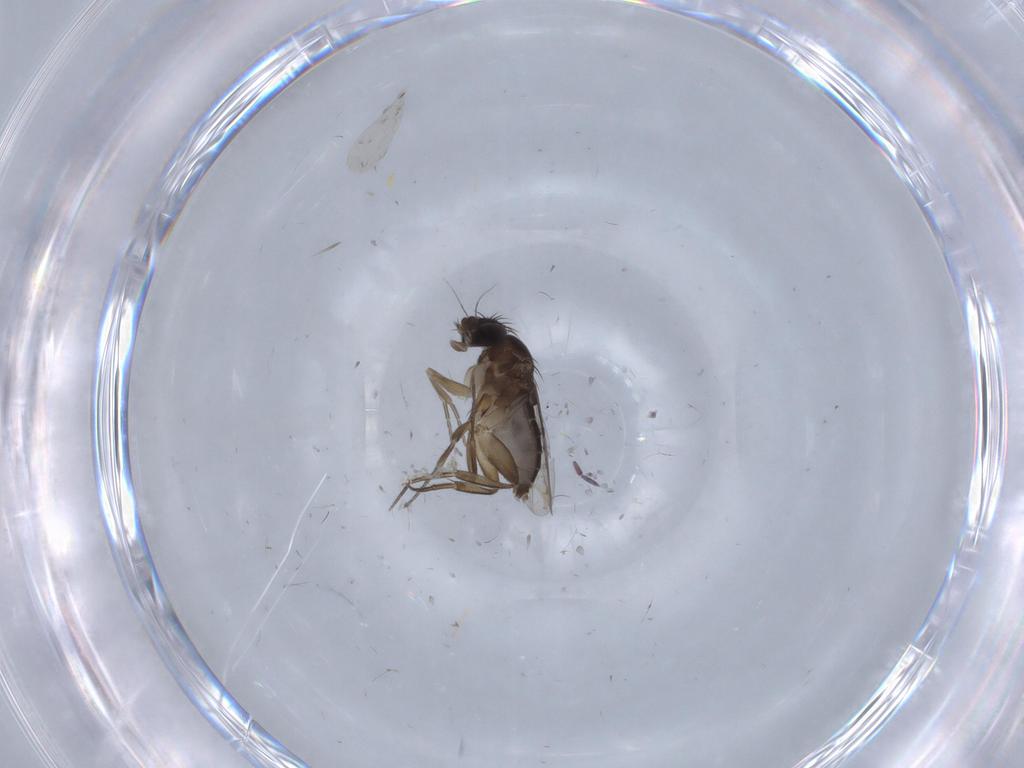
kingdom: Animalia
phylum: Arthropoda
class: Insecta
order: Diptera
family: Chironomidae
